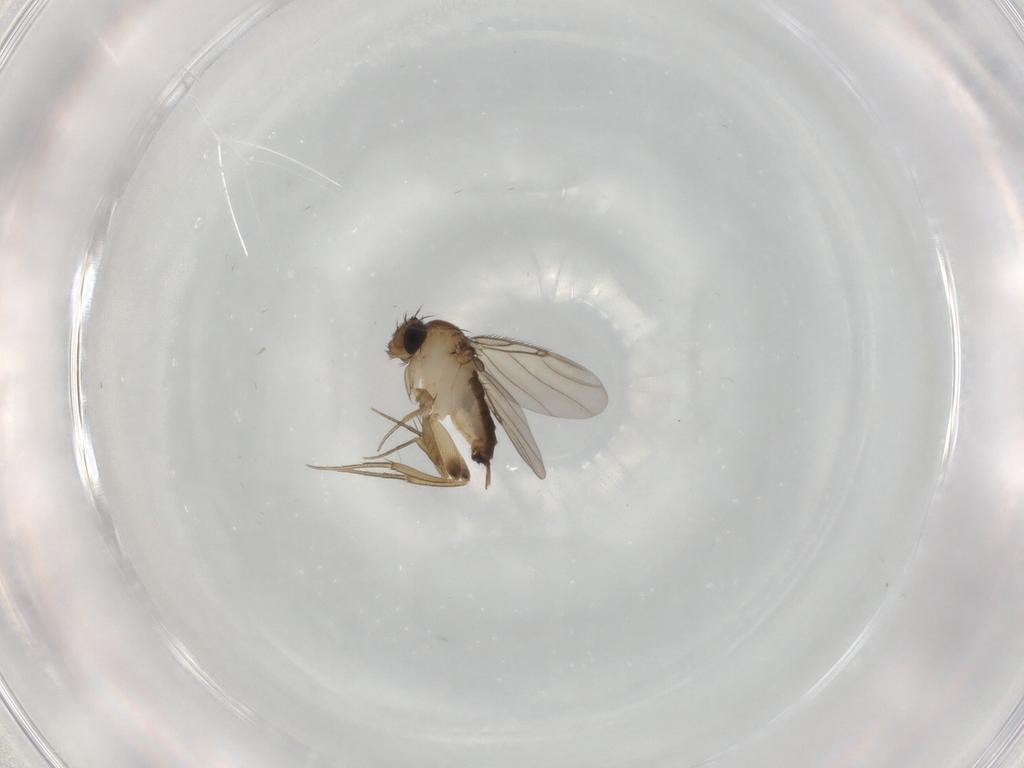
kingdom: Animalia
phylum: Arthropoda
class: Insecta
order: Diptera
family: Phoridae
